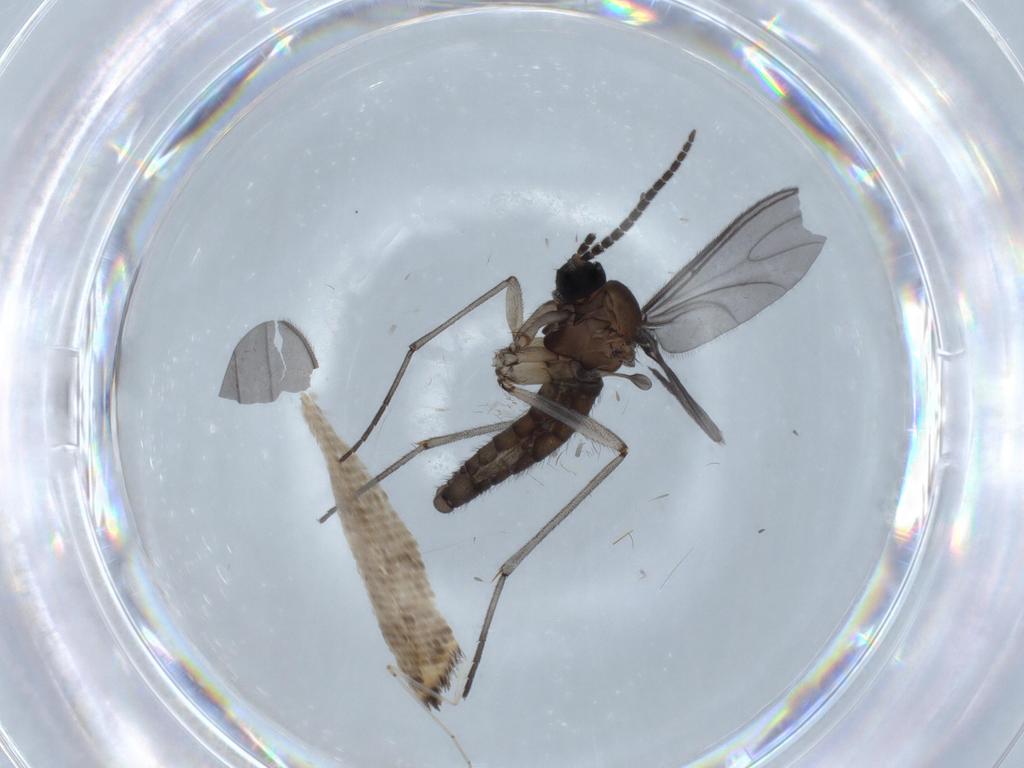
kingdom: Animalia
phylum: Arthropoda
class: Insecta
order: Diptera
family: Sciaridae
